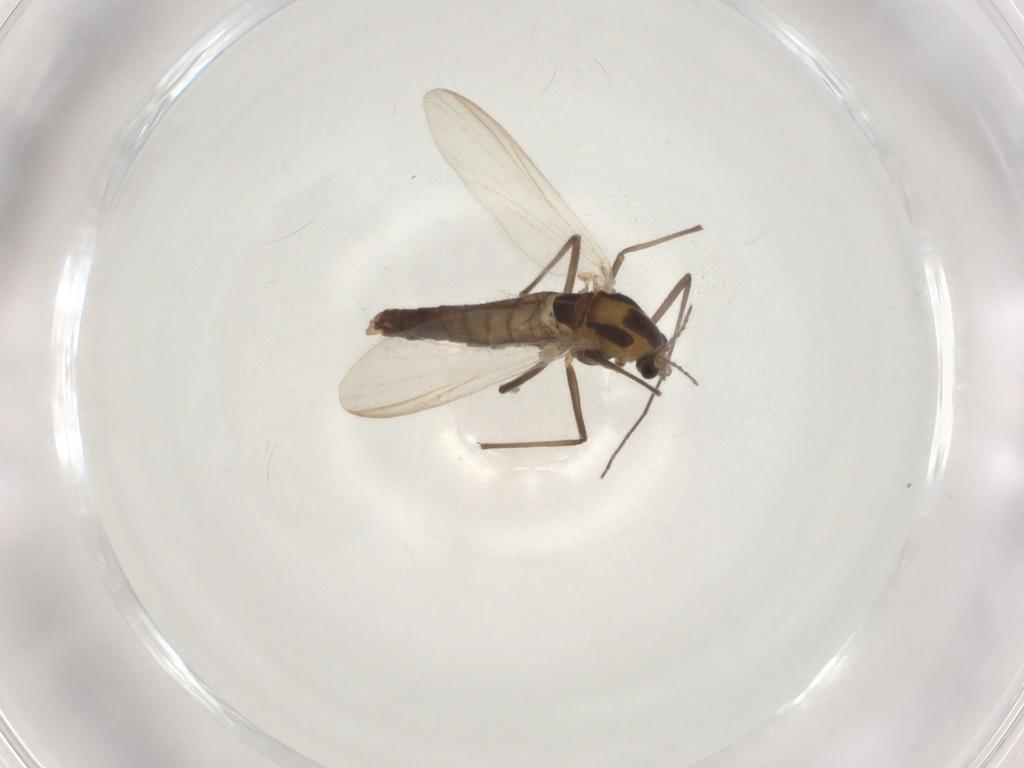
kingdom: Animalia
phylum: Arthropoda
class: Insecta
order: Diptera
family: Chironomidae
